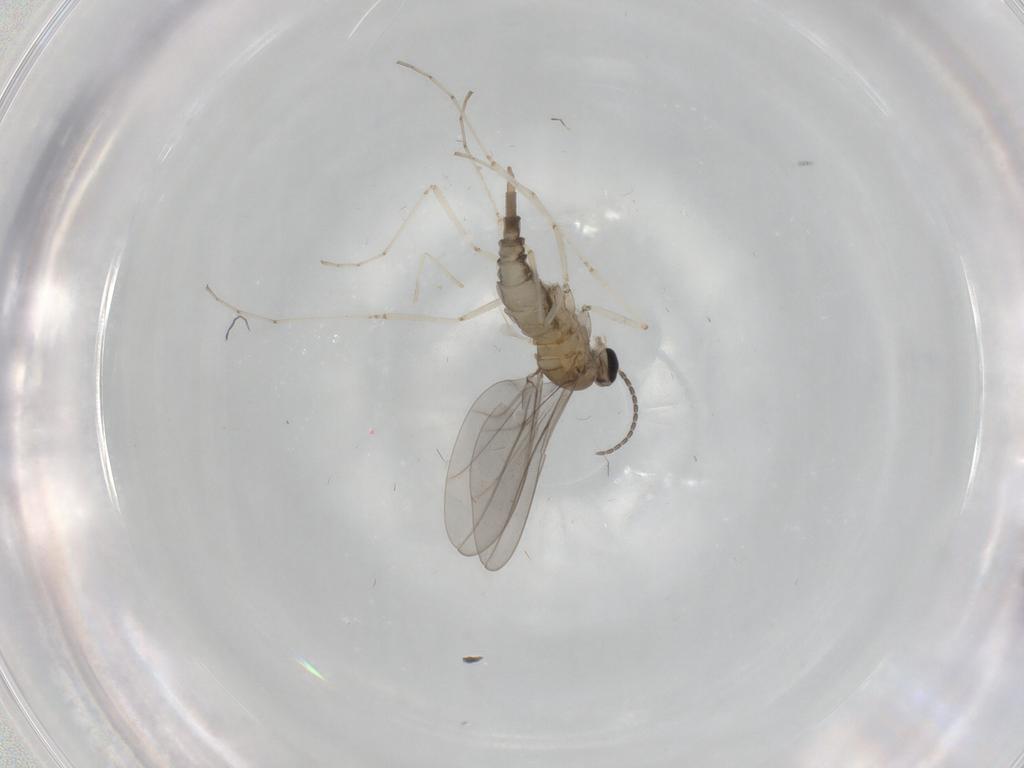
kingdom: Animalia
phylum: Arthropoda
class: Insecta
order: Diptera
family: Cecidomyiidae
